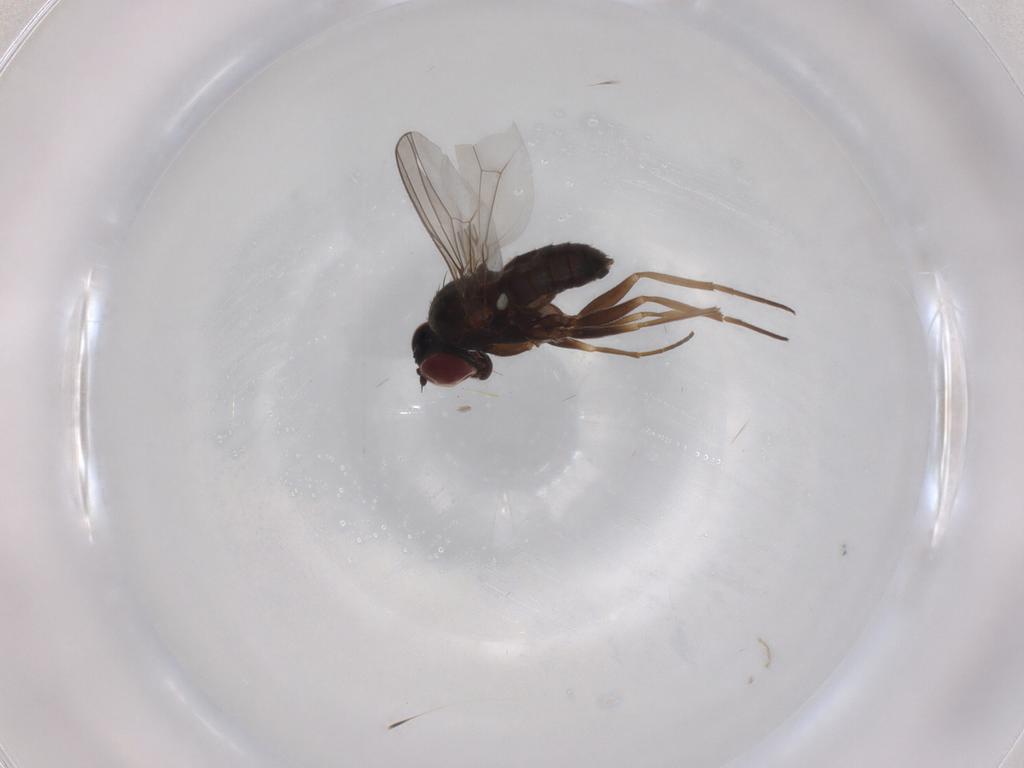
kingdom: Animalia
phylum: Arthropoda
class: Insecta
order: Diptera
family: Dolichopodidae
